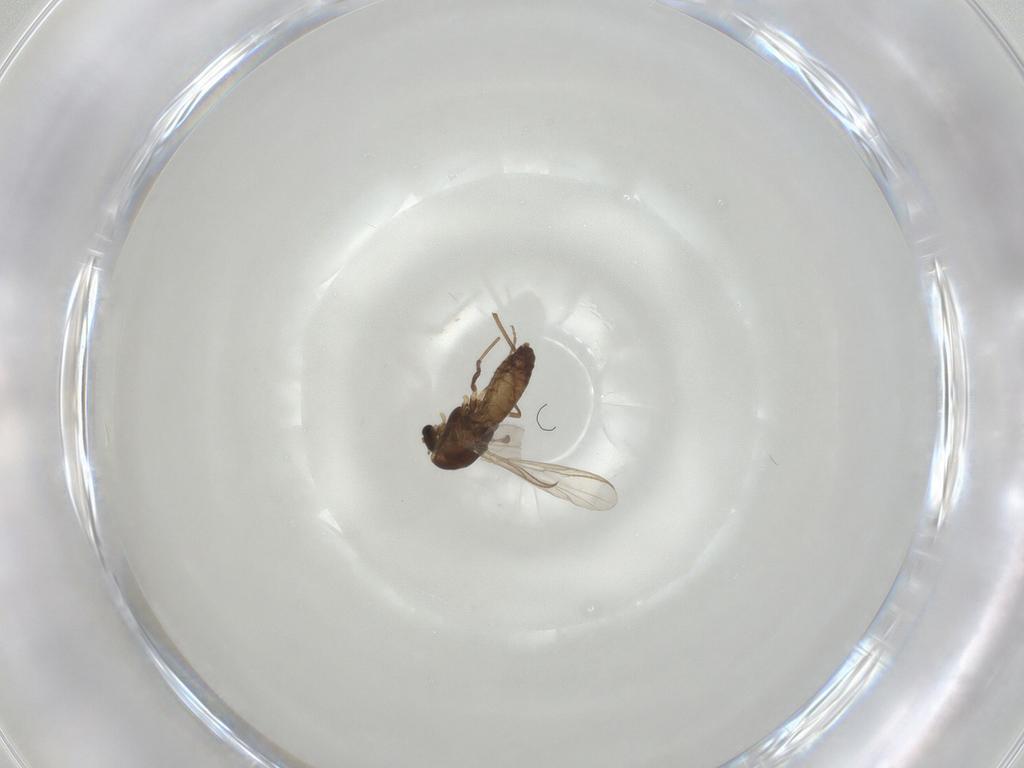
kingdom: Animalia
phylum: Arthropoda
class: Insecta
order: Diptera
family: Chironomidae
